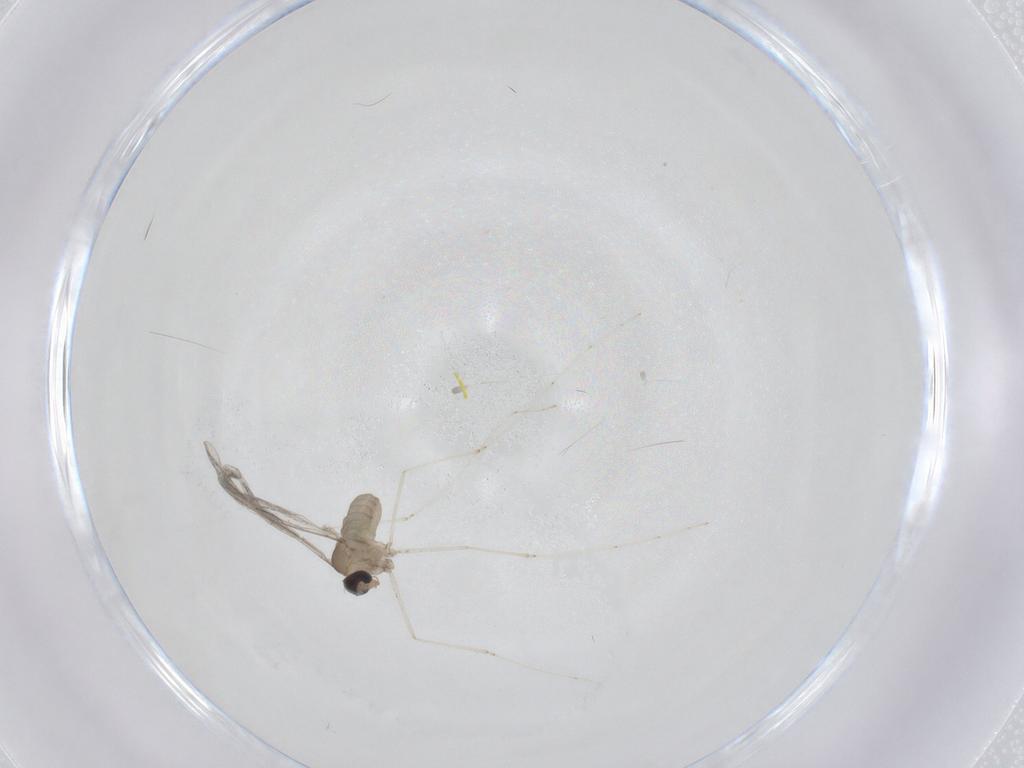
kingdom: Animalia
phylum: Arthropoda
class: Insecta
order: Diptera
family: Cecidomyiidae
